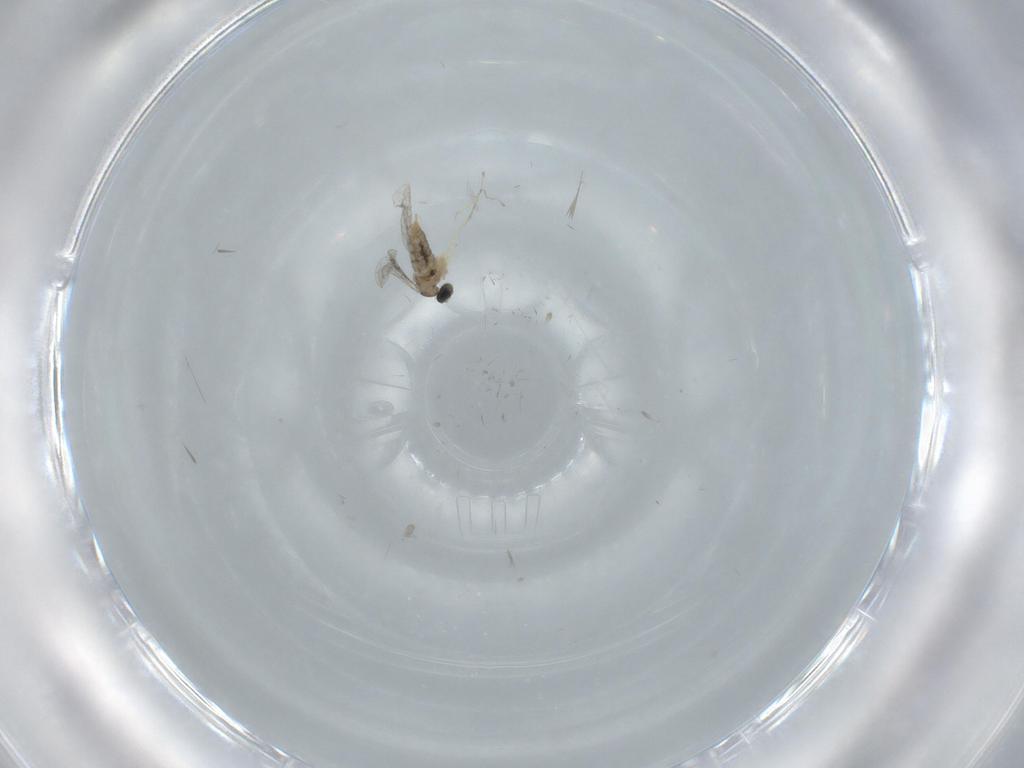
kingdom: Animalia
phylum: Arthropoda
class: Insecta
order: Diptera
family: Cecidomyiidae
